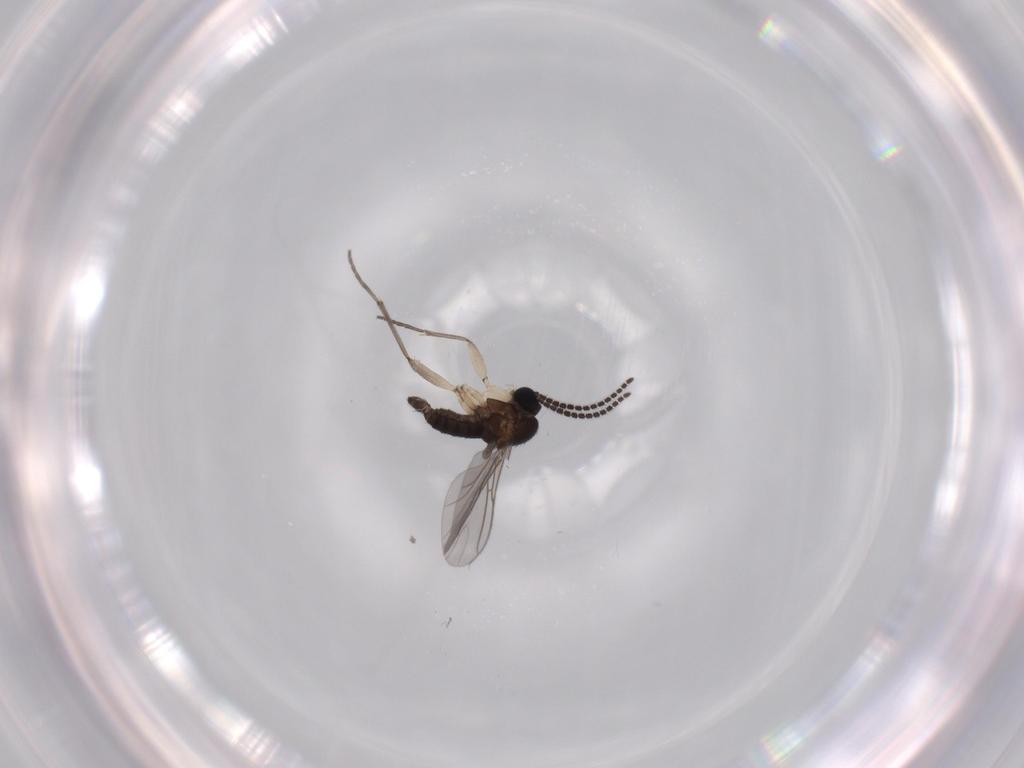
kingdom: Animalia
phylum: Arthropoda
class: Insecta
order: Diptera
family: Sciaridae
